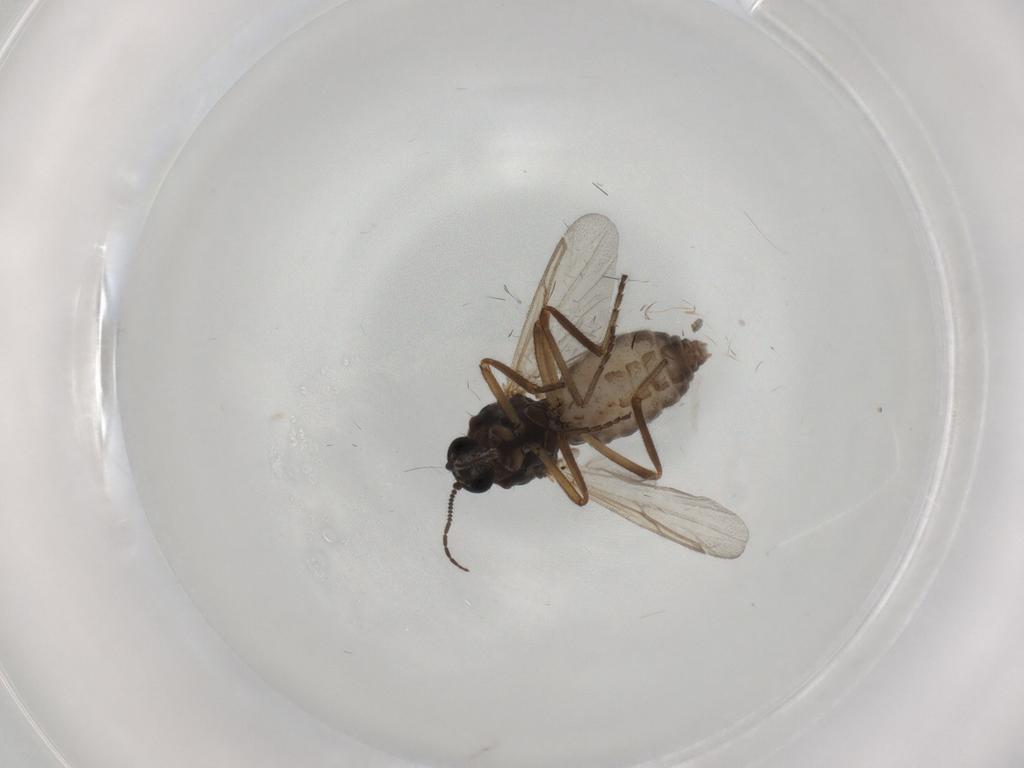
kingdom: Animalia
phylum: Arthropoda
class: Insecta
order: Diptera
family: Ceratopogonidae
